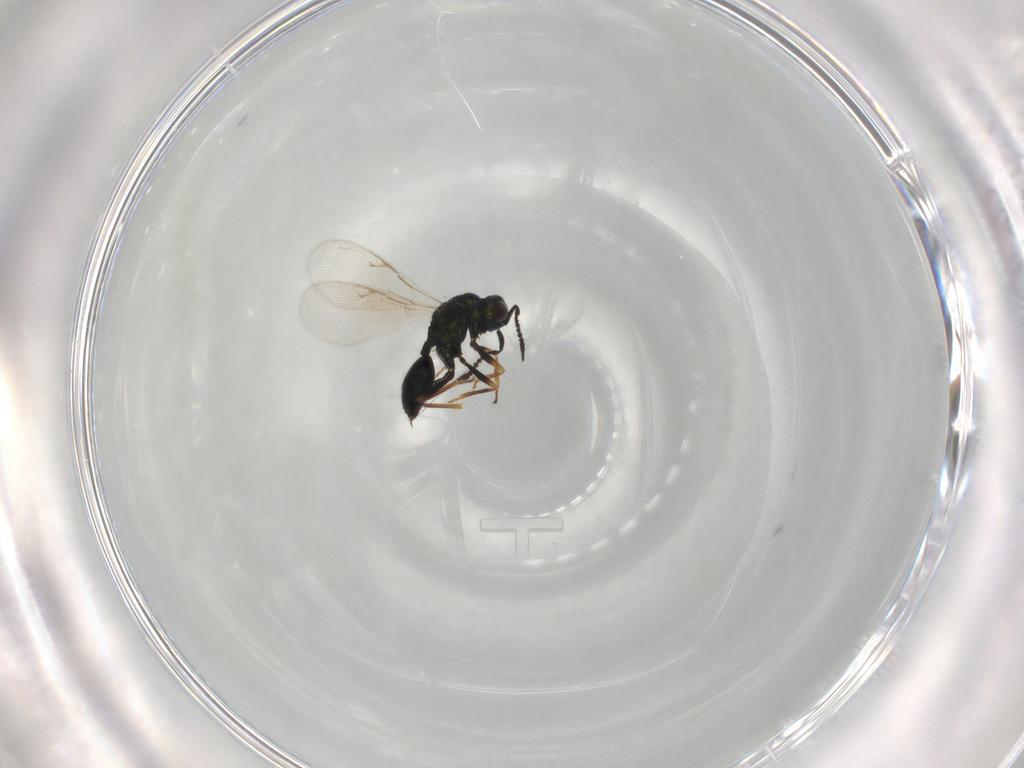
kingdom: Animalia
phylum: Arthropoda
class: Insecta
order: Hymenoptera
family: Pteromalidae
